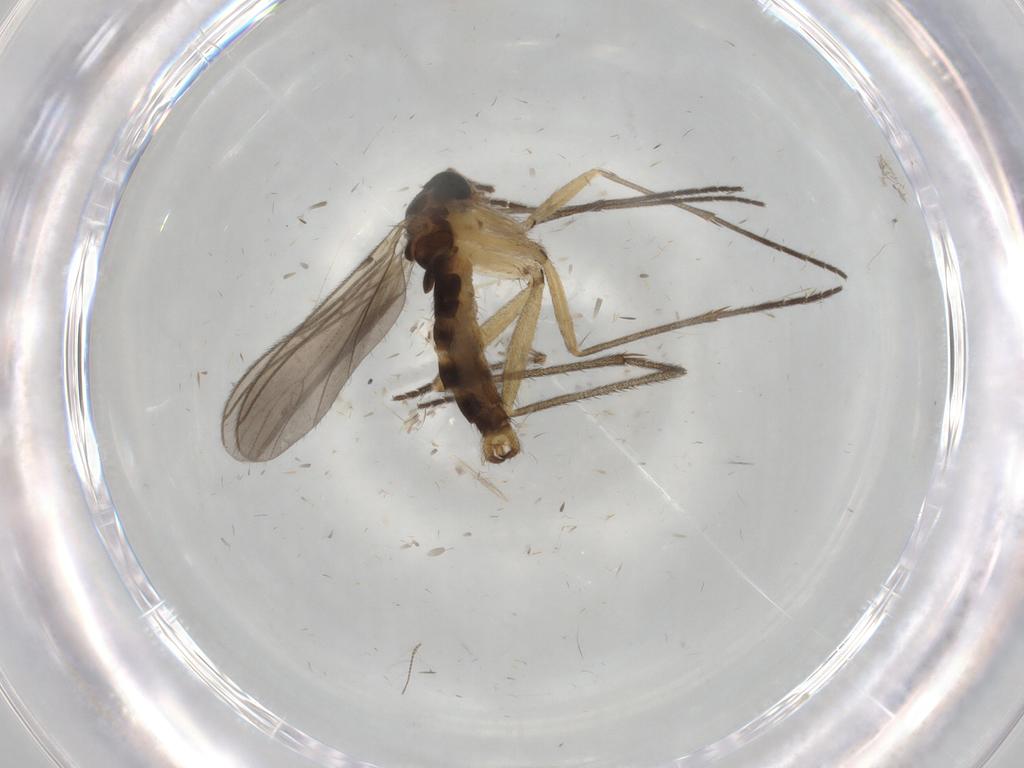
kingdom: Animalia
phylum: Arthropoda
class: Insecta
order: Diptera
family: Sciaridae
